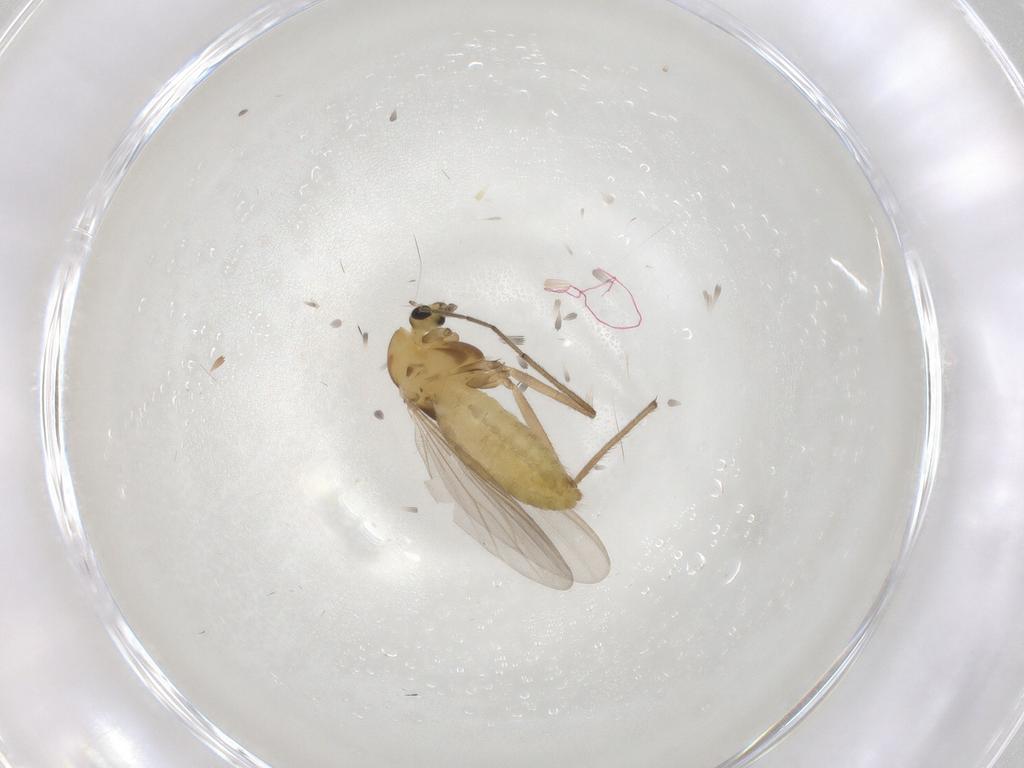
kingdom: Animalia
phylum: Arthropoda
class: Insecta
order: Diptera
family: Chironomidae
